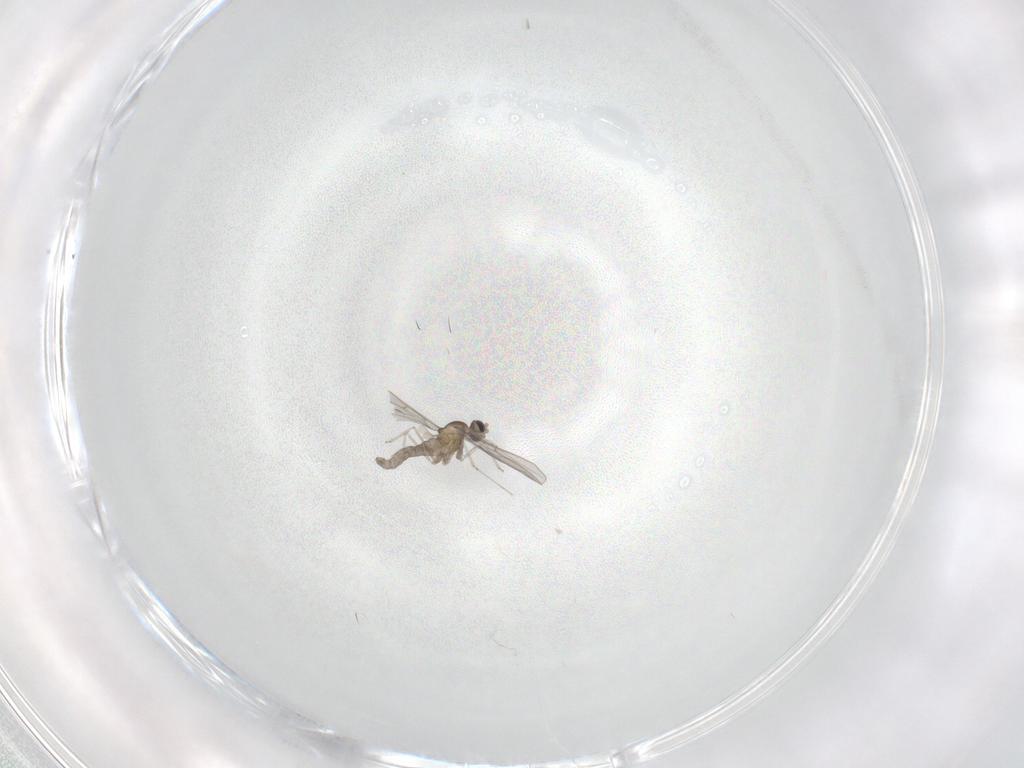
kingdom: Animalia
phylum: Arthropoda
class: Insecta
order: Diptera
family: Cecidomyiidae
